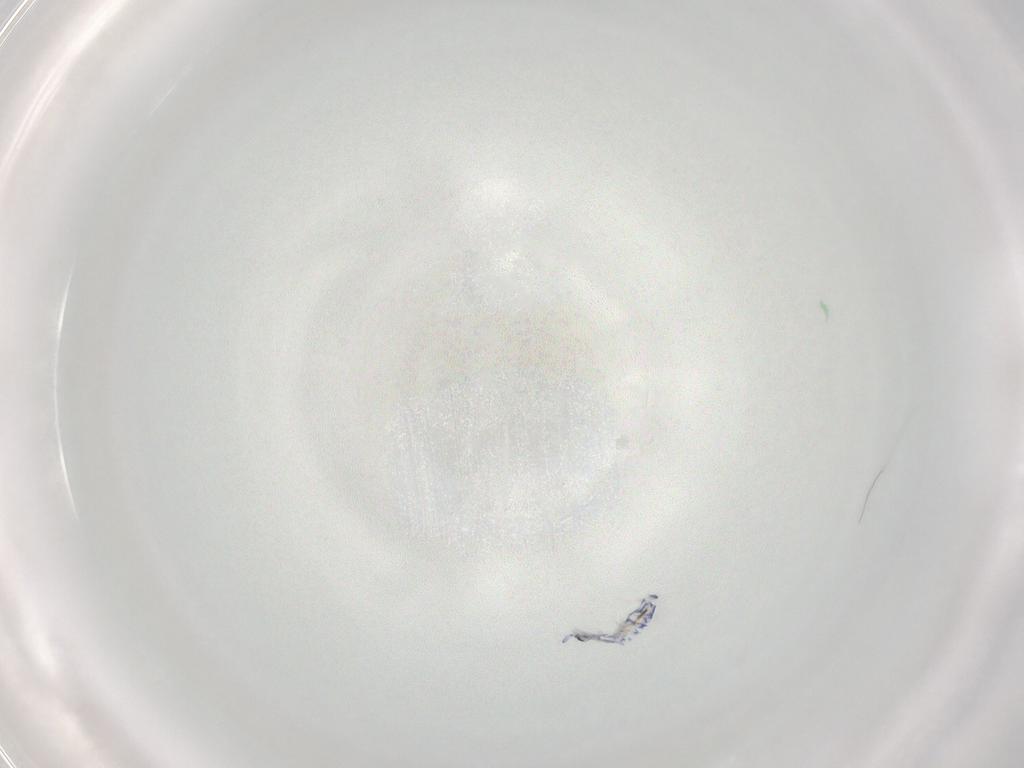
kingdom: Animalia
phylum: Arthropoda
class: Collembola
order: Entomobryomorpha
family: Entomobryidae
